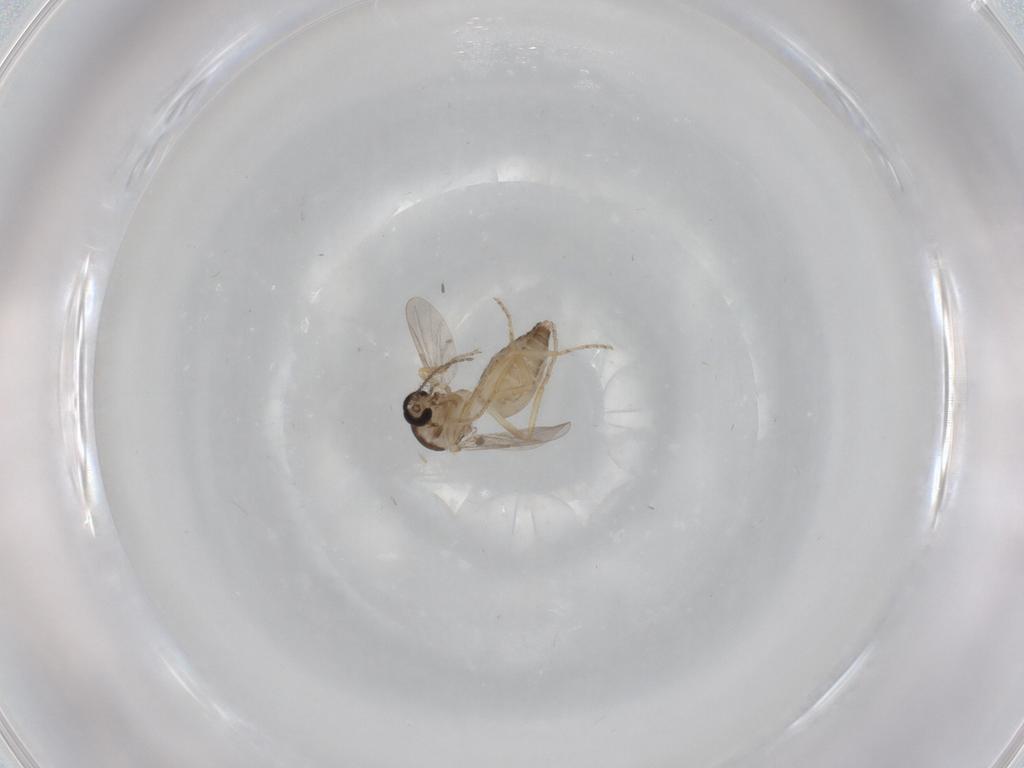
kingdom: Animalia
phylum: Arthropoda
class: Insecta
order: Diptera
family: Ceratopogonidae
